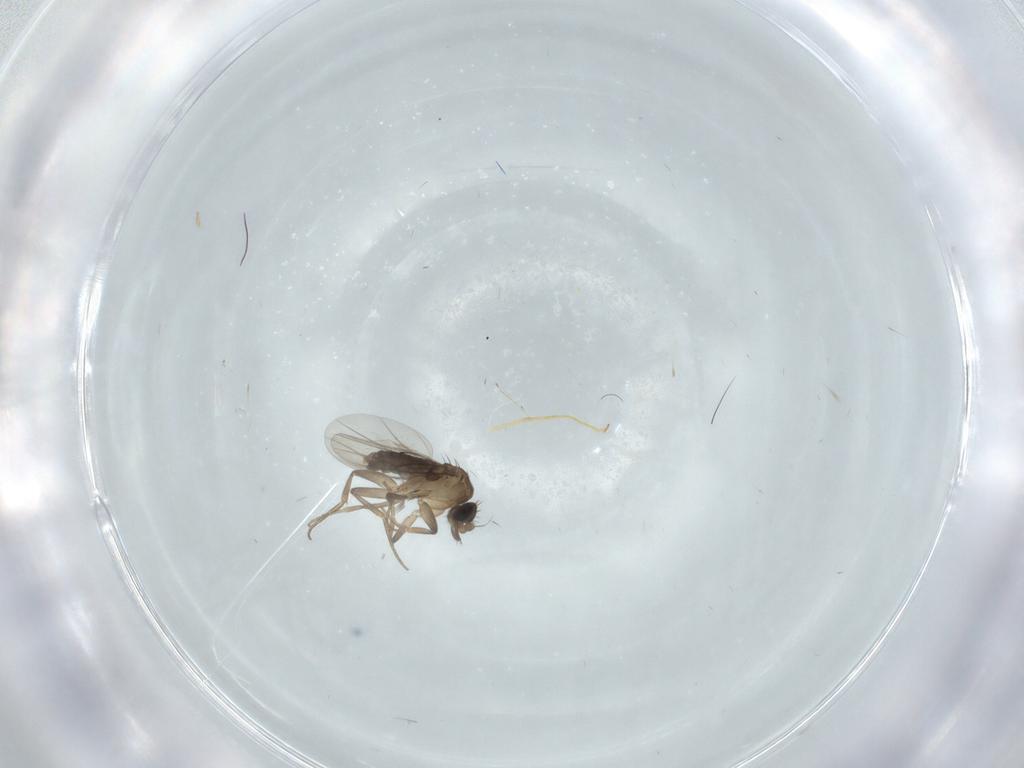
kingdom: Animalia
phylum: Arthropoda
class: Insecta
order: Diptera
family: Phoridae
